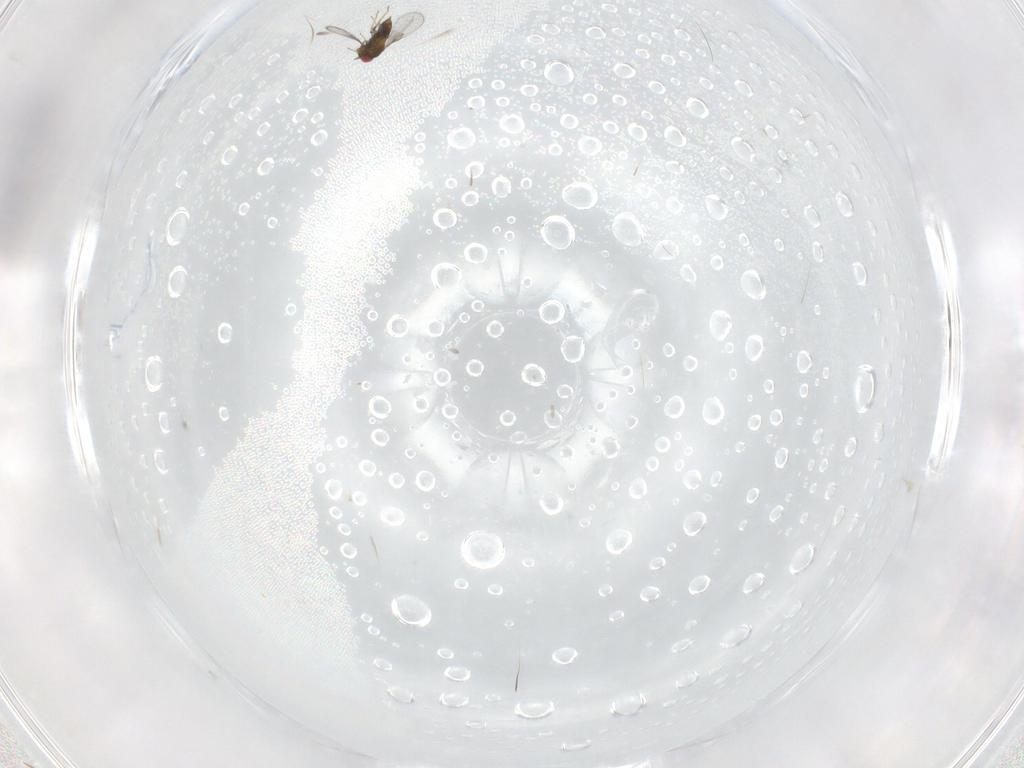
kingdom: Animalia
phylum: Arthropoda
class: Insecta
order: Hymenoptera
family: Trichogrammatidae
